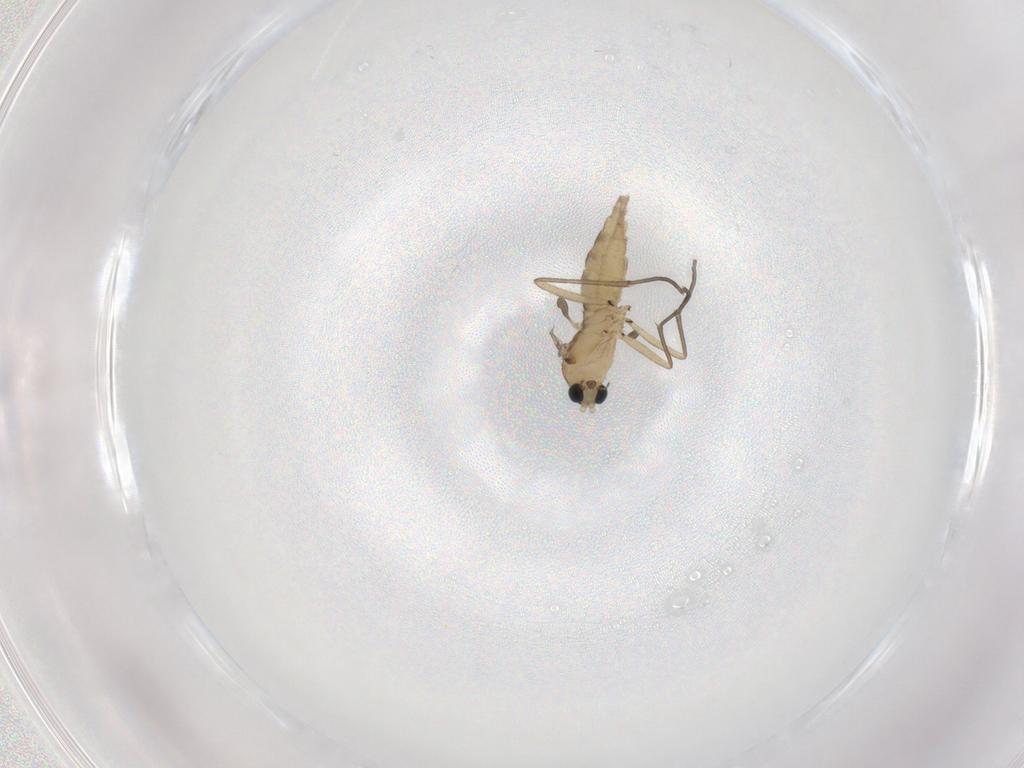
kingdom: Animalia
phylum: Arthropoda
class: Insecta
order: Diptera
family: Sciaridae
